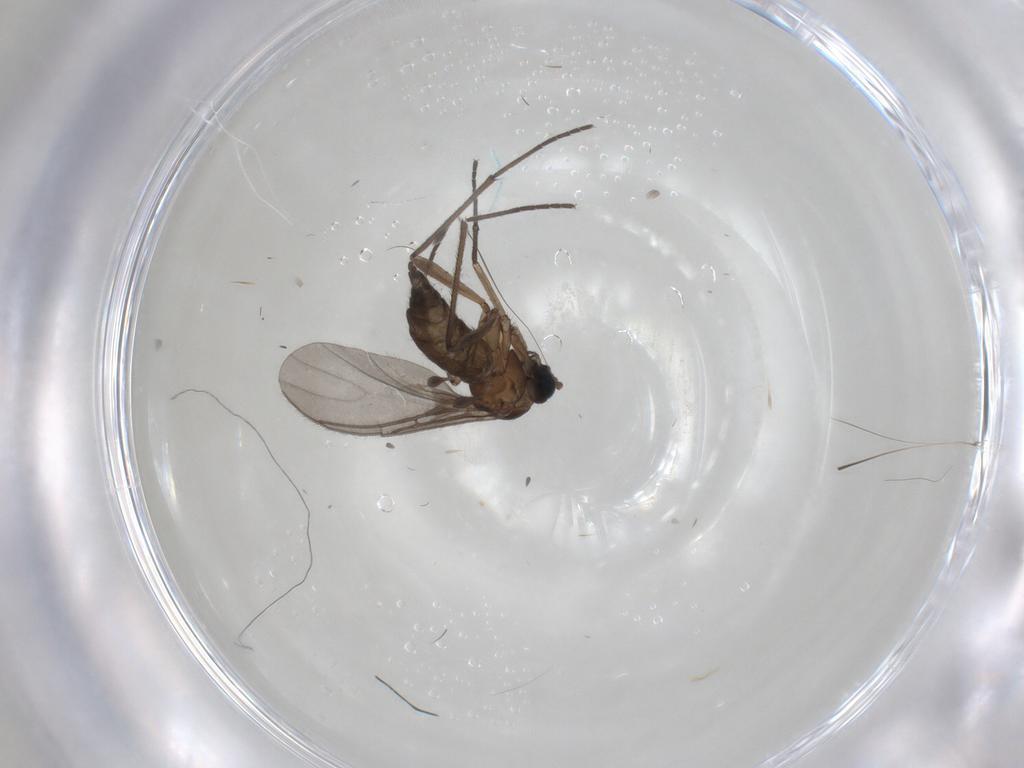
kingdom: Animalia
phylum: Arthropoda
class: Insecta
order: Diptera
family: Sciaridae
